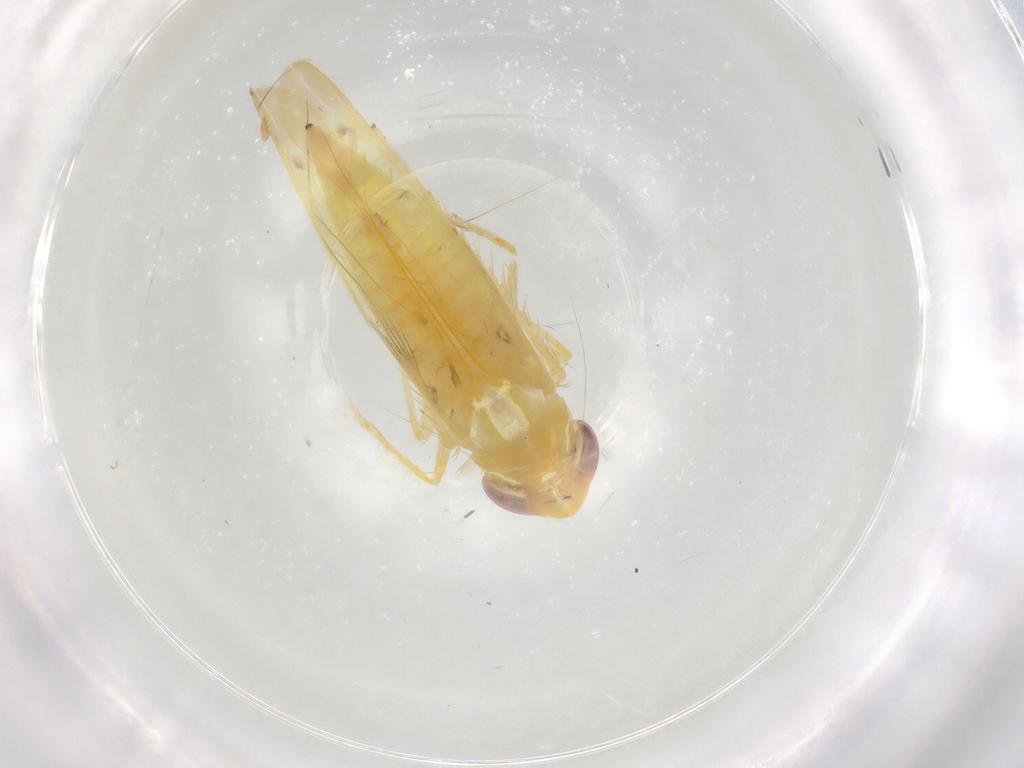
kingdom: Animalia
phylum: Arthropoda
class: Insecta
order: Hemiptera
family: Cicadellidae
